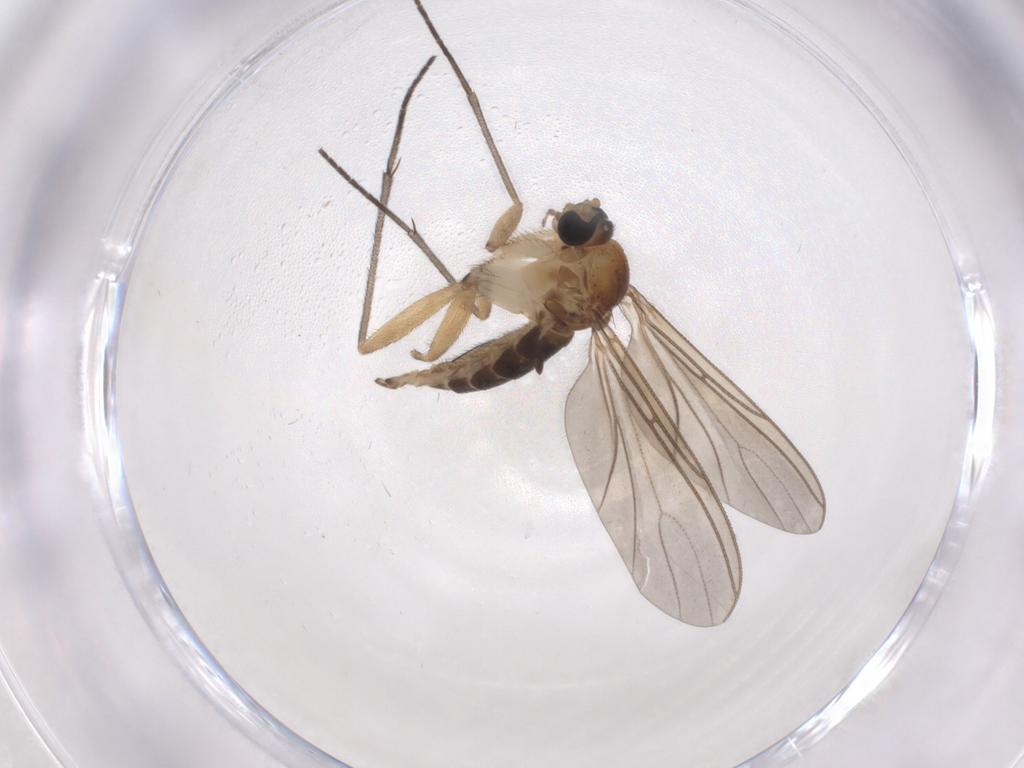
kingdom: Animalia
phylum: Arthropoda
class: Insecta
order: Diptera
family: Sciaridae
